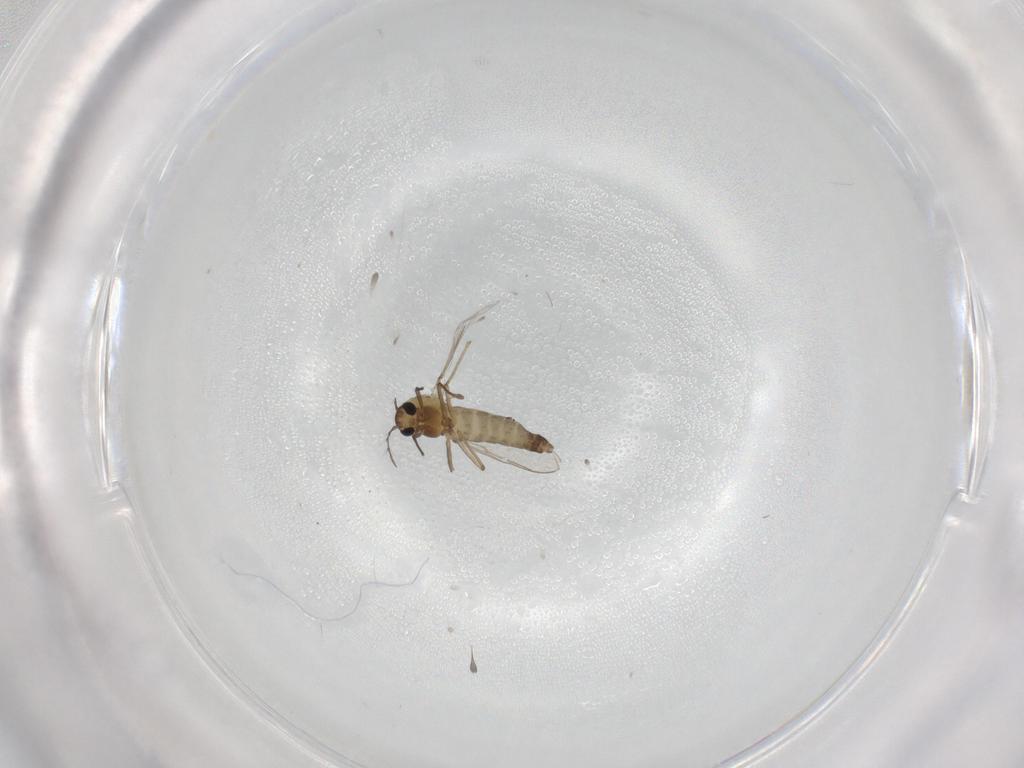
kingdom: Animalia
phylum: Arthropoda
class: Insecta
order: Diptera
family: Chironomidae
